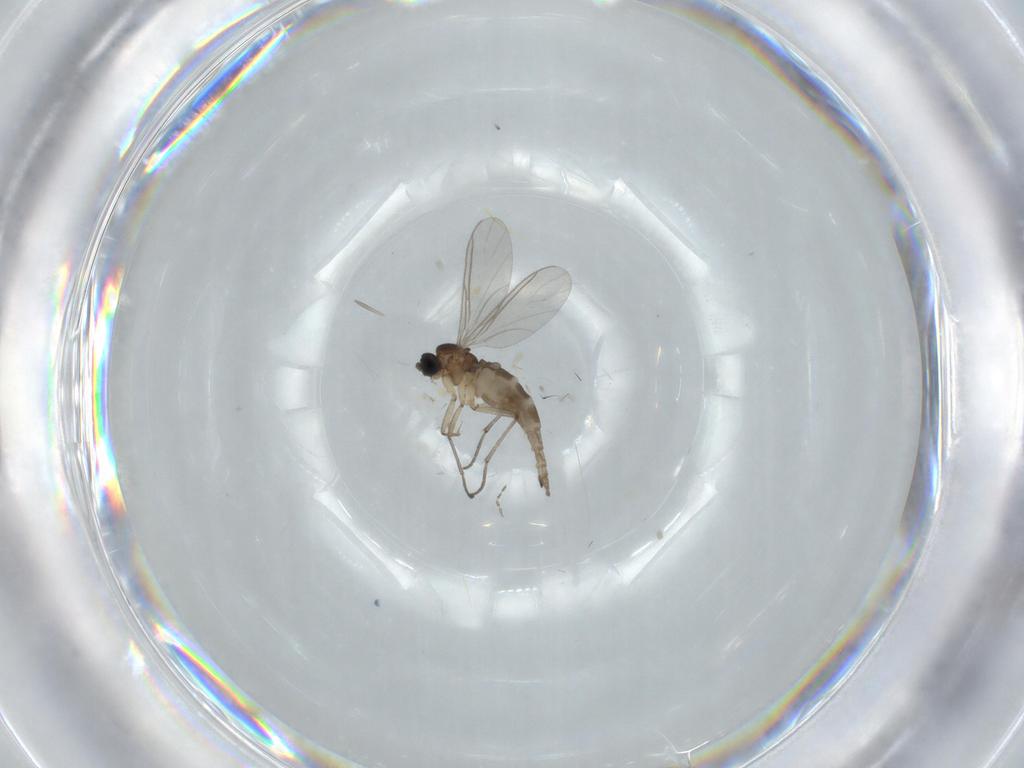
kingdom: Animalia
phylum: Arthropoda
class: Insecta
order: Diptera
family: Cecidomyiidae
